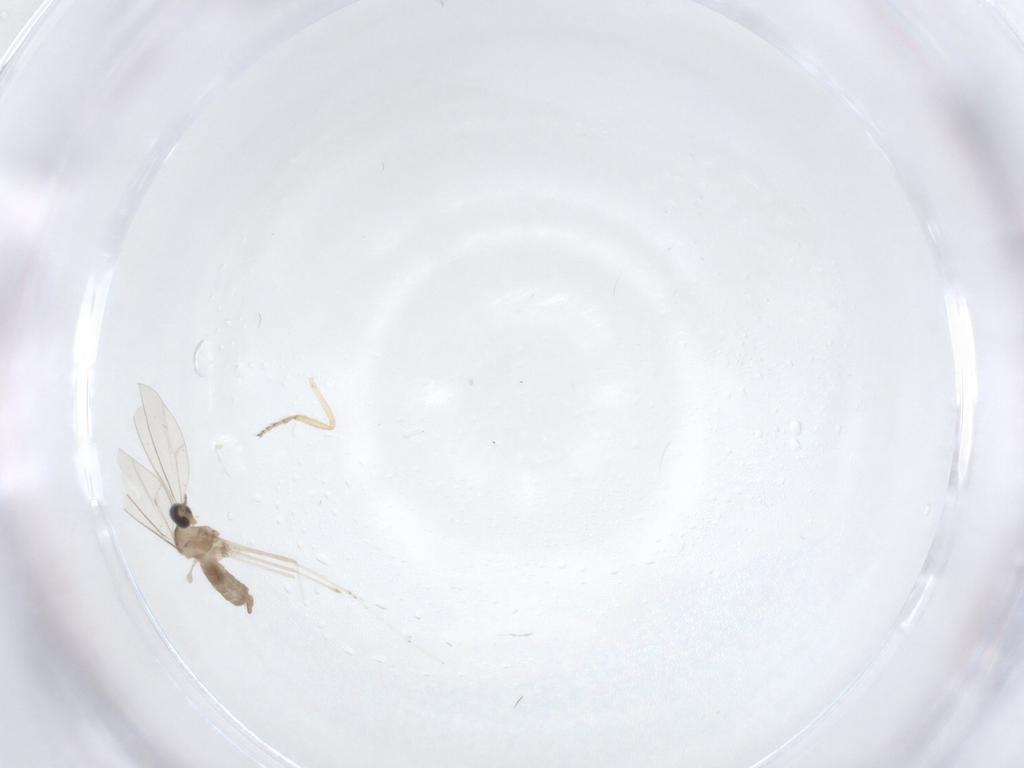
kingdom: Animalia
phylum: Arthropoda
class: Insecta
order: Diptera
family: Cecidomyiidae
